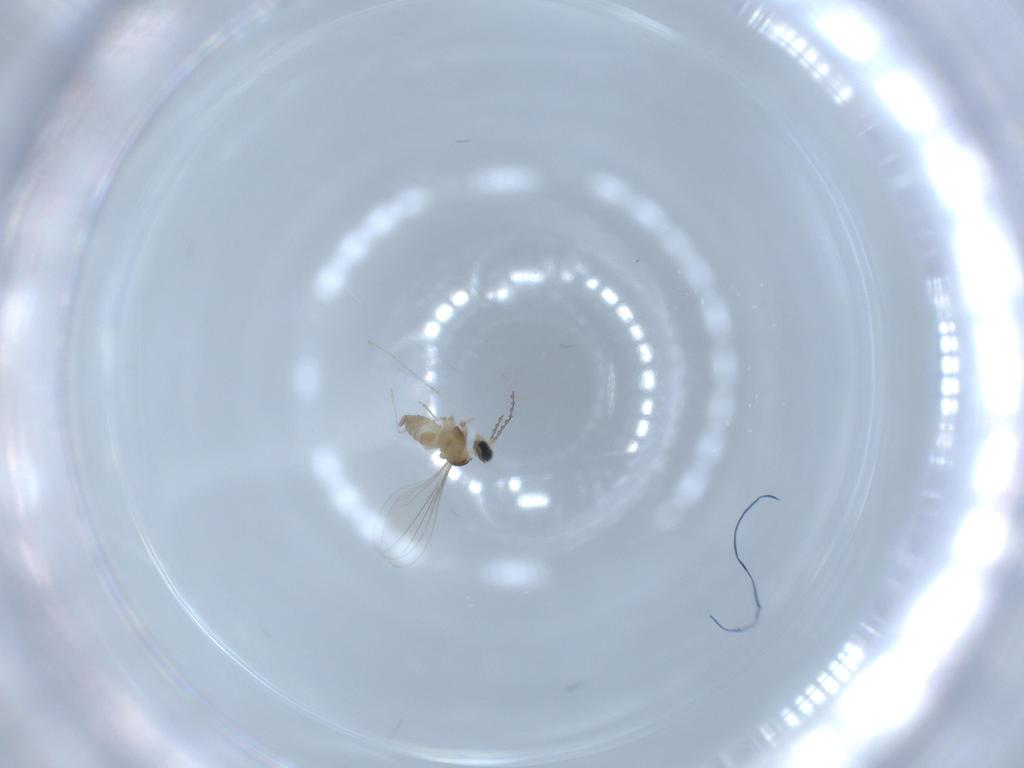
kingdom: Animalia
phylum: Arthropoda
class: Insecta
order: Diptera
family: Cecidomyiidae
